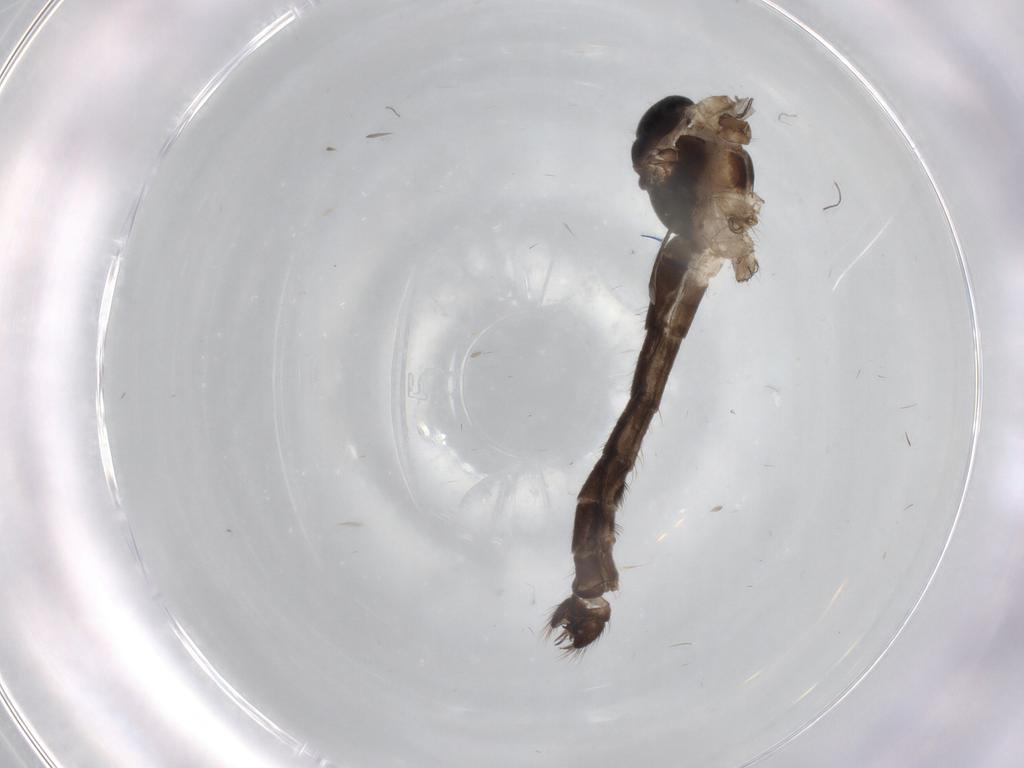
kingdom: Animalia
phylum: Arthropoda
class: Insecta
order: Diptera
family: Limoniidae
